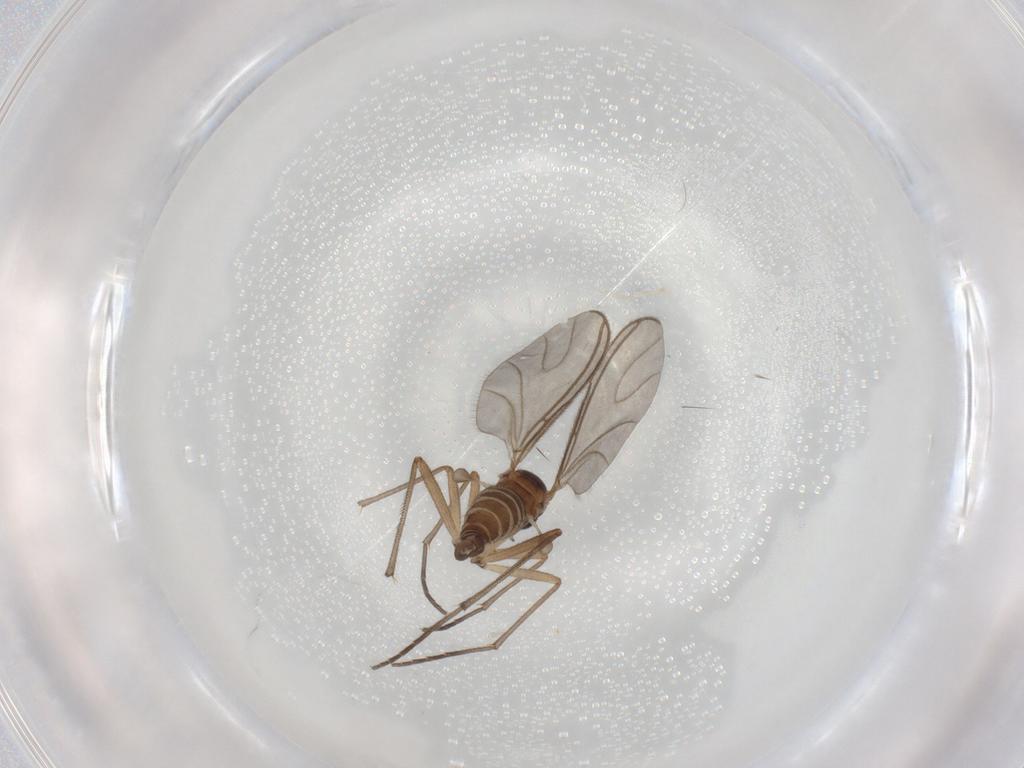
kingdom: Animalia
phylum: Arthropoda
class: Insecta
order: Diptera
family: Sciaridae
